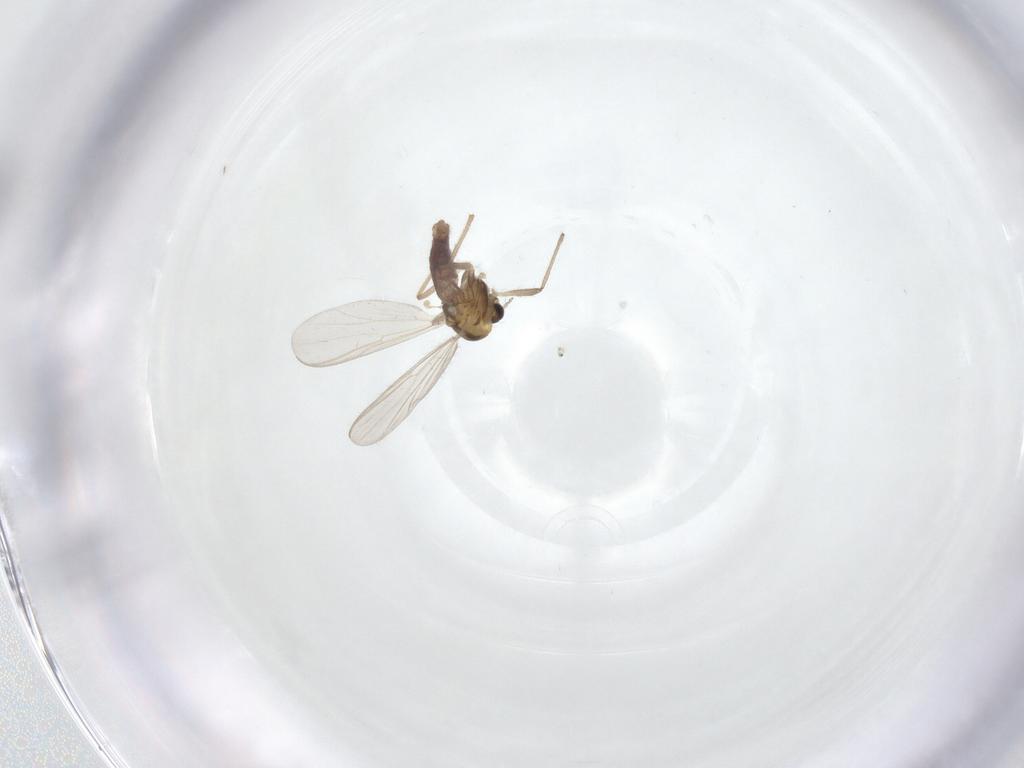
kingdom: Animalia
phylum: Arthropoda
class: Insecta
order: Diptera
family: Chironomidae
